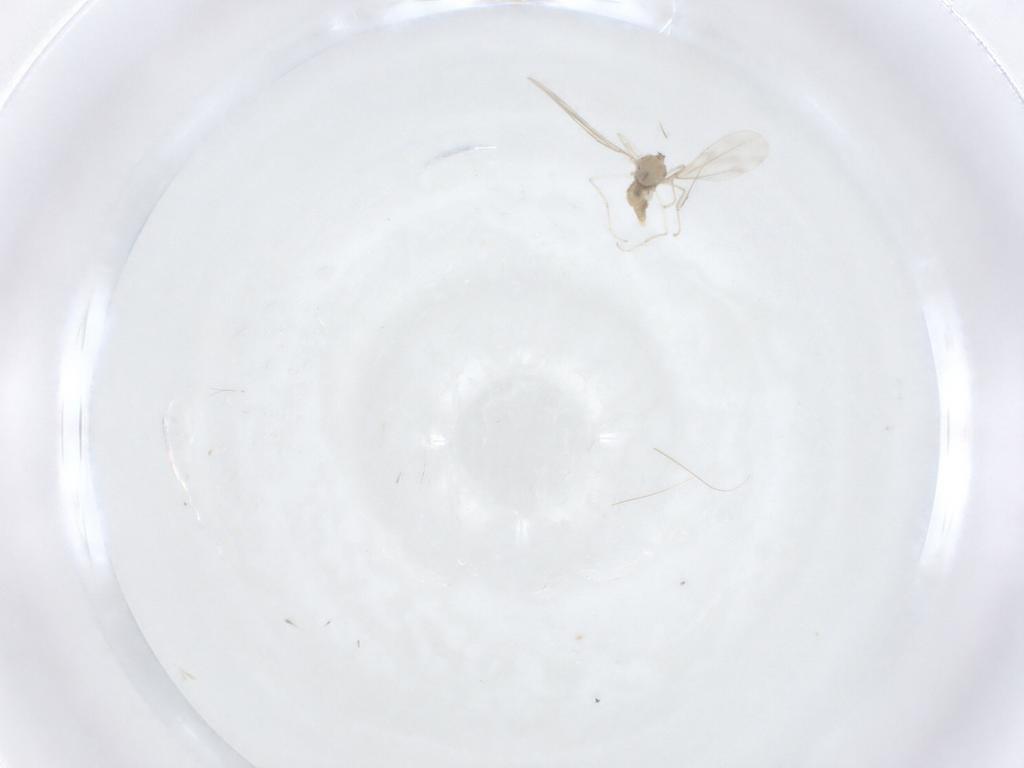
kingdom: Animalia
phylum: Arthropoda
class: Insecta
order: Diptera
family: Cecidomyiidae
